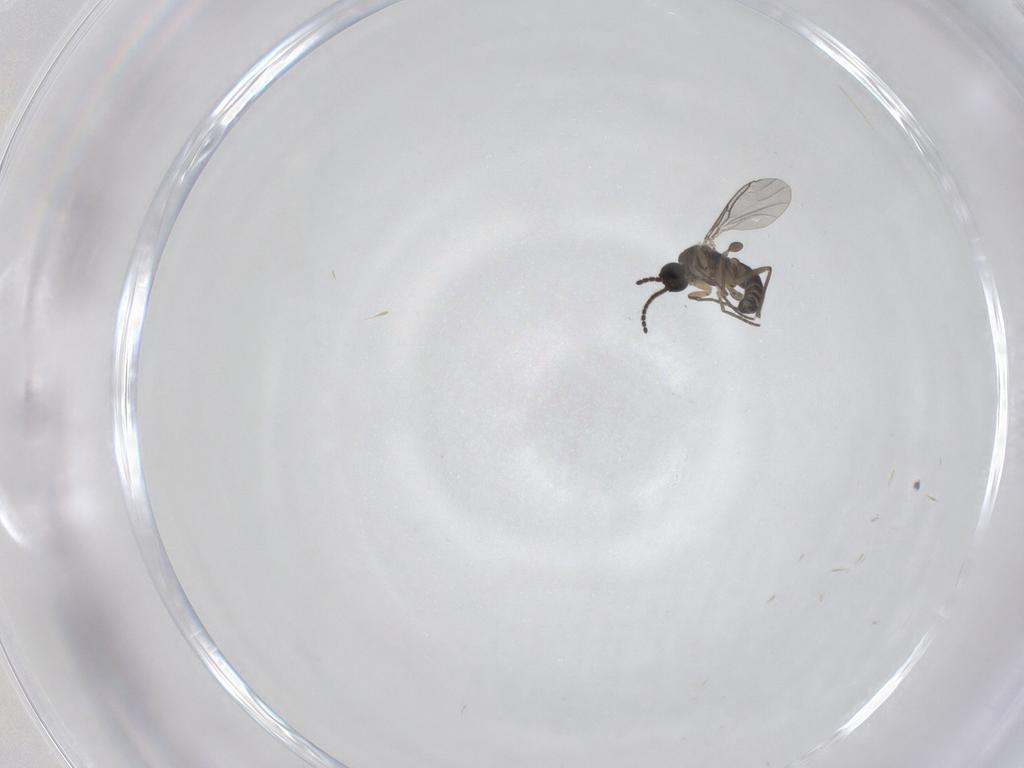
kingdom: Animalia
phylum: Arthropoda
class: Insecta
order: Diptera
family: Sciaridae
